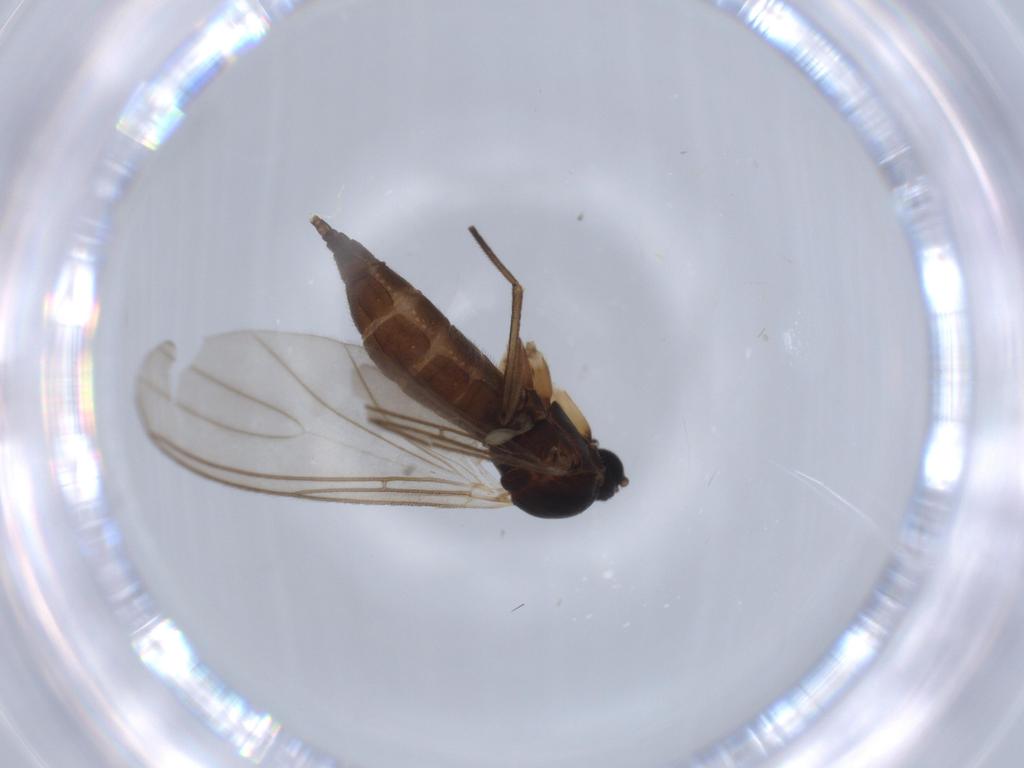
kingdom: Animalia
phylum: Arthropoda
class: Insecta
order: Diptera
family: Sciaridae
